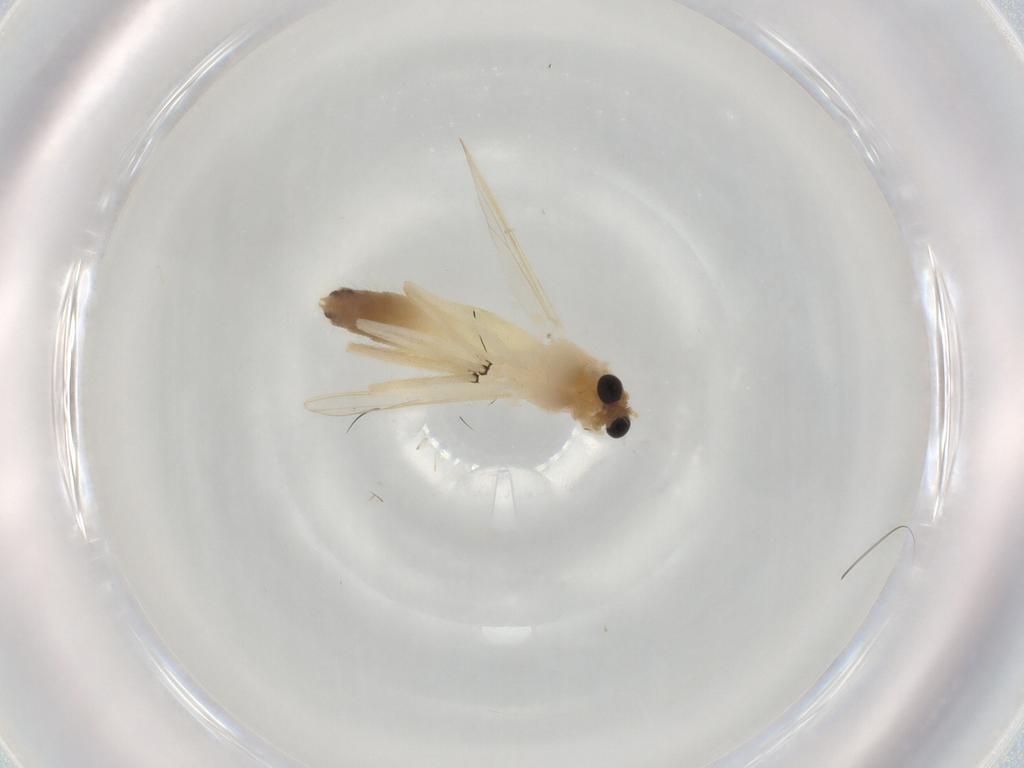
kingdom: Animalia
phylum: Arthropoda
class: Insecta
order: Diptera
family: Chironomidae
